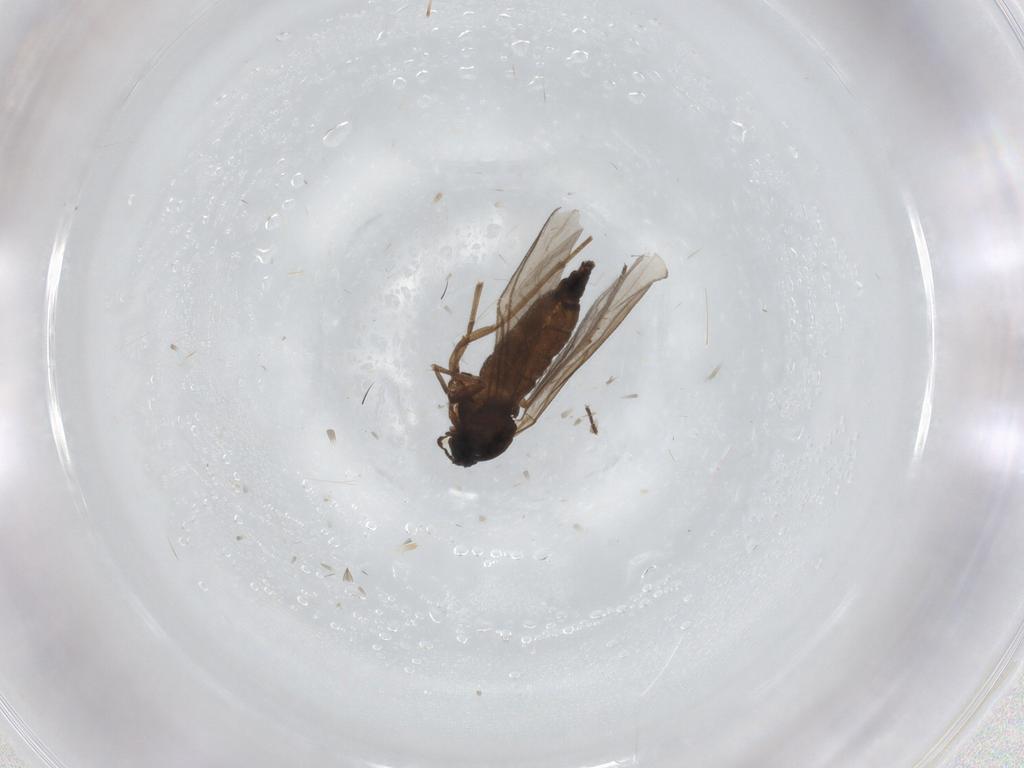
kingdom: Animalia
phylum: Arthropoda
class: Insecta
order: Diptera
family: Sciaridae
